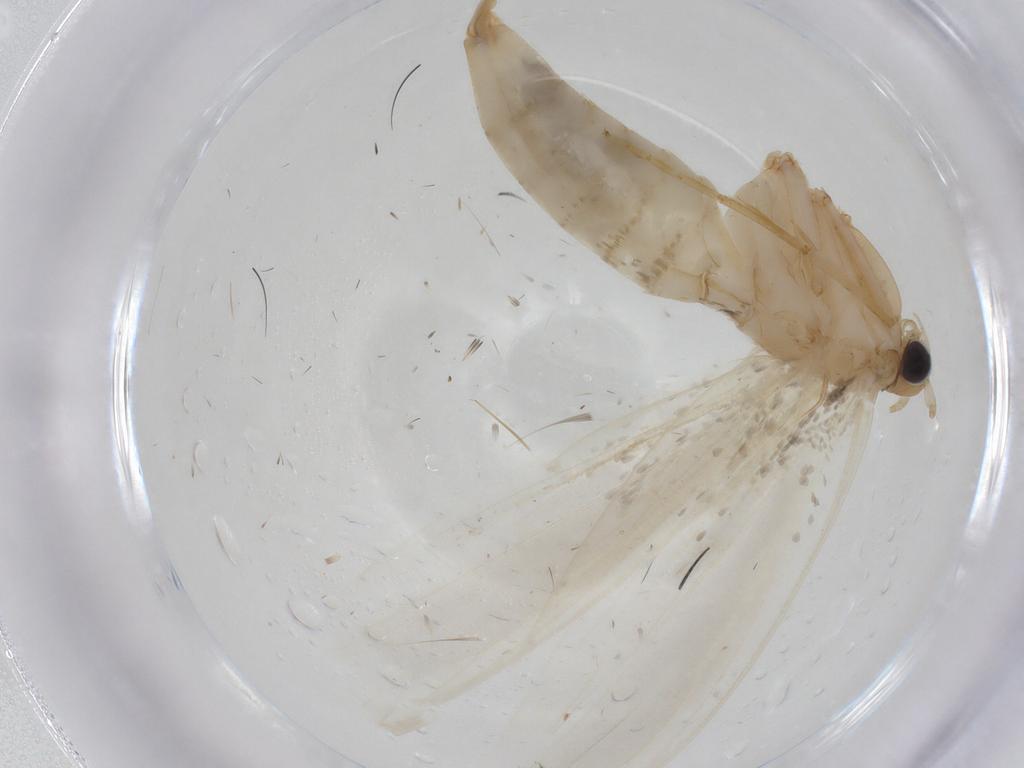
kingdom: Animalia
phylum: Arthropoda
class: Insecta
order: Lepidoptera
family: Tineidae
